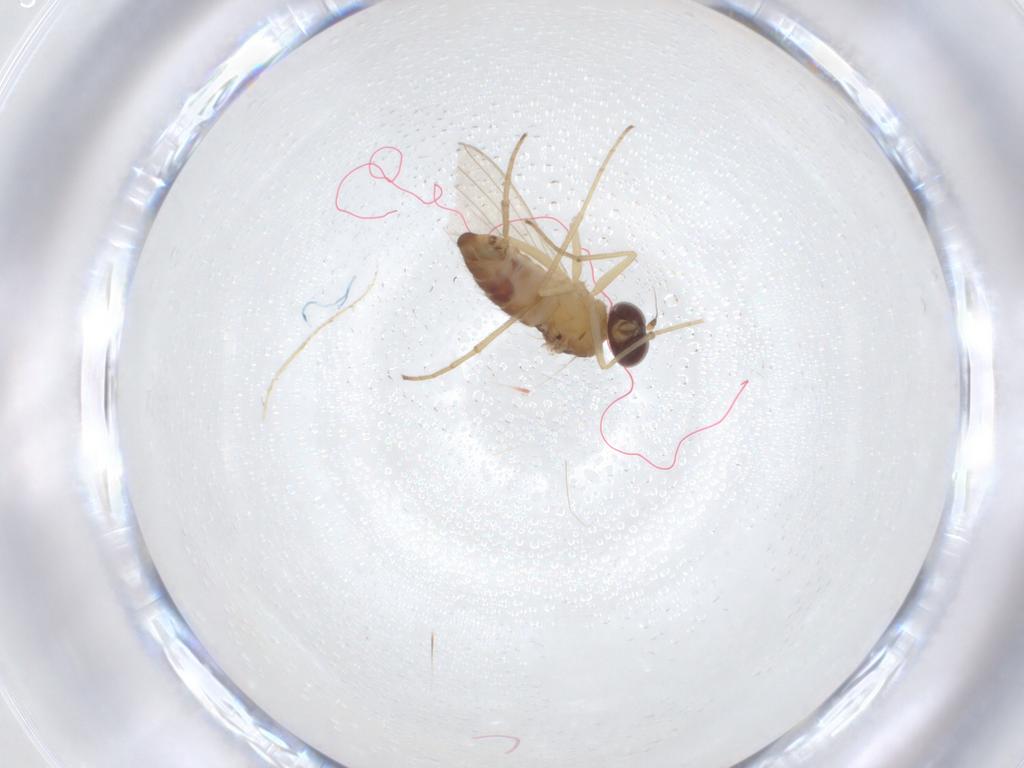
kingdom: Animalia
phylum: Arthropoda
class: Insecta
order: Diptera
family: Dolichopodidae
